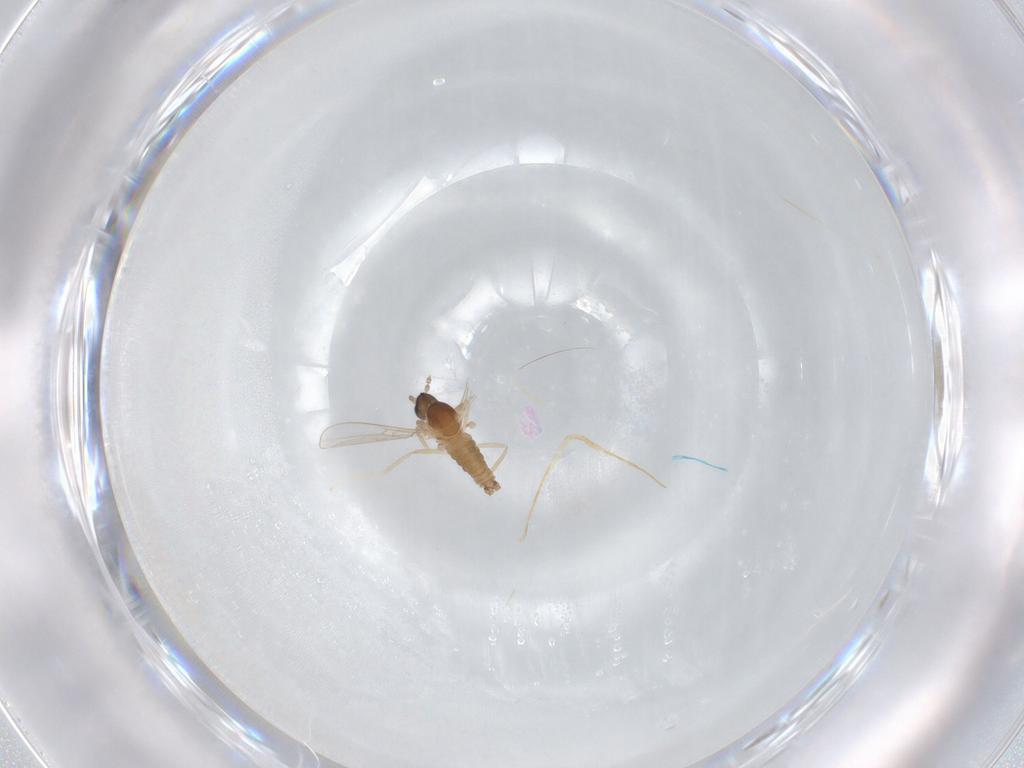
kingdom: Animalia
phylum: Arthropoda
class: Insecta
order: Diptera
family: Cecidomyiidae
